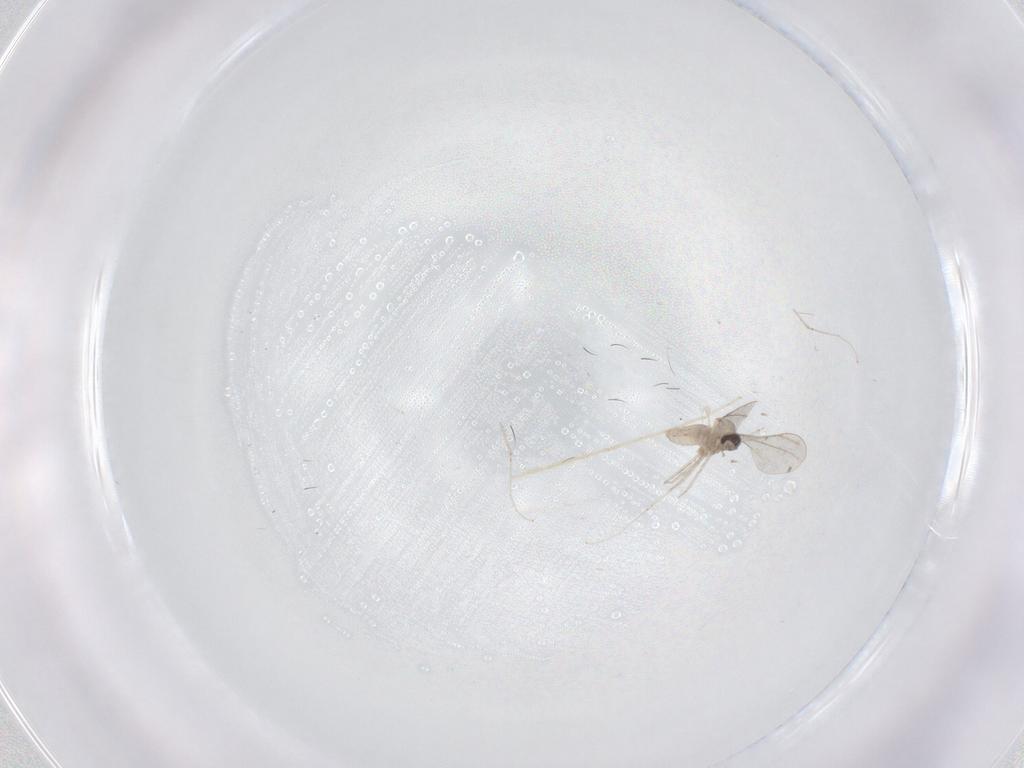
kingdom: Animalia
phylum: Arthropoda
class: Insecta
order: Diptera
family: Cecidomyiidae
